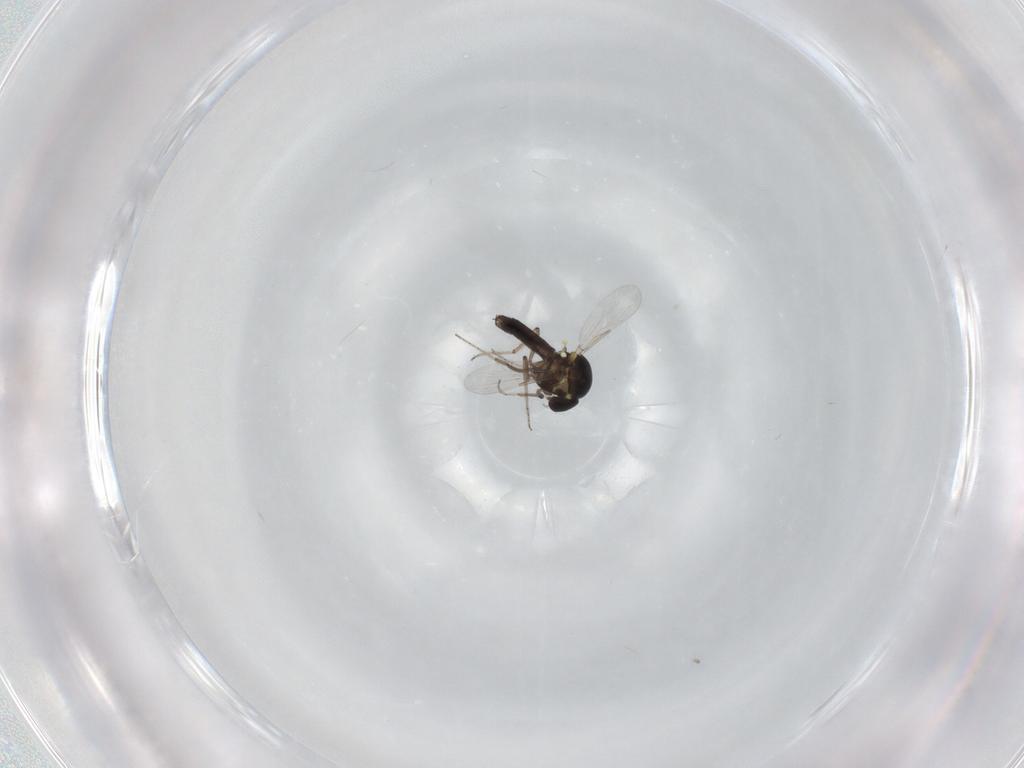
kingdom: Animalia
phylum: Arthropoda
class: Insecta
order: Diptera
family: Ceratopogonidae
